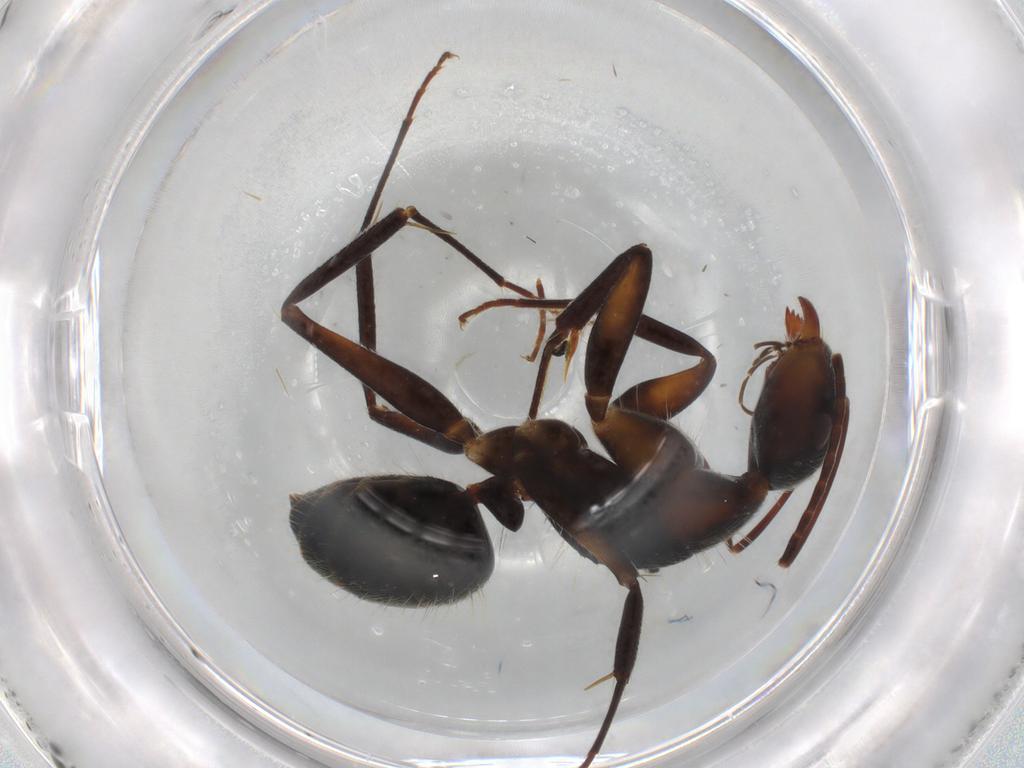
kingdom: Animalia
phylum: Arthropoda
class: Insecta
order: Hymenoptera
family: Formicidae
